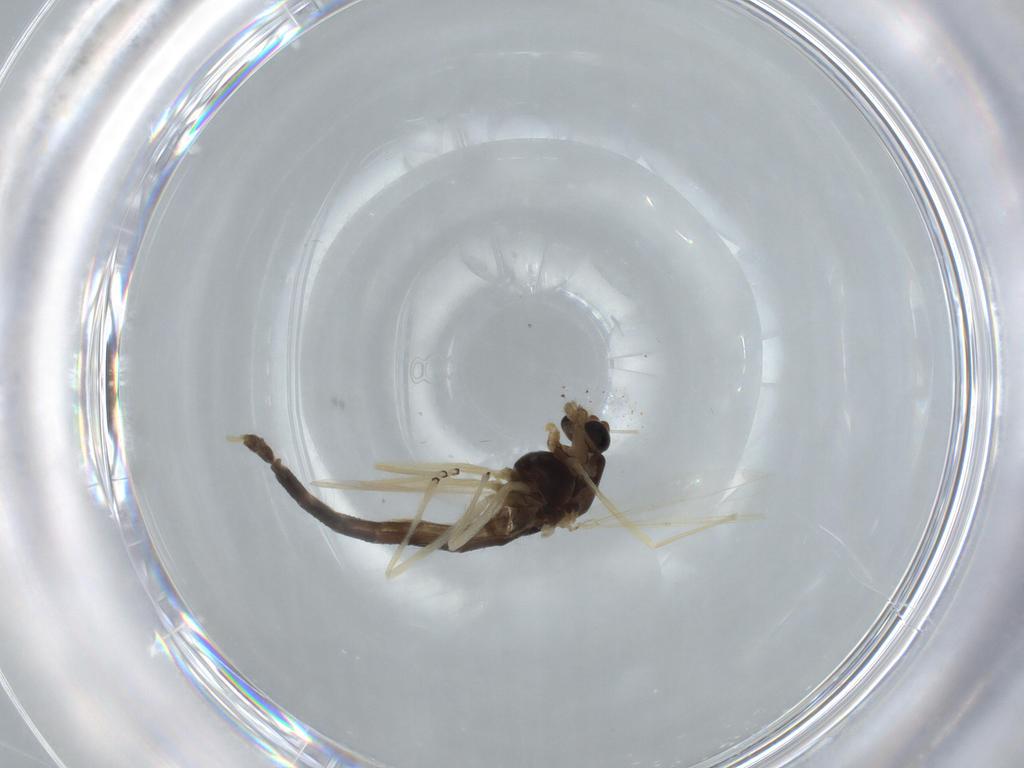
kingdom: Animalia
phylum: Arthropoda
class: Insecta
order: Diptera
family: Chironomidae
